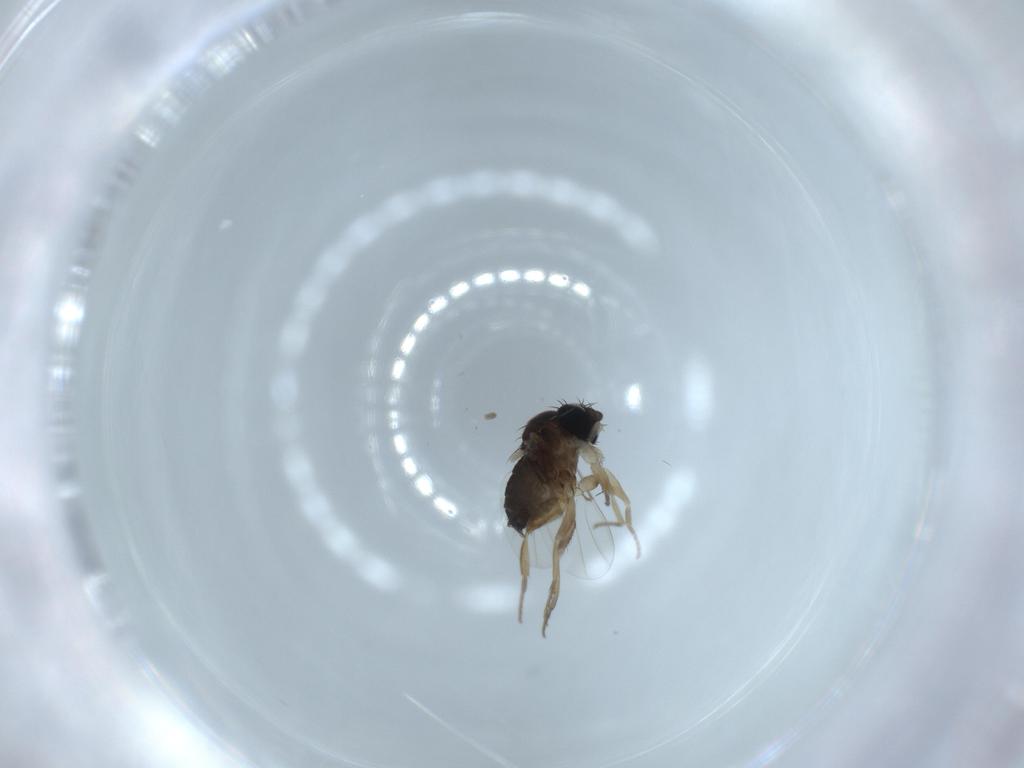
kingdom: Animalia
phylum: Arthropoda
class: Insecta
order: Diptera
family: Phoridae
